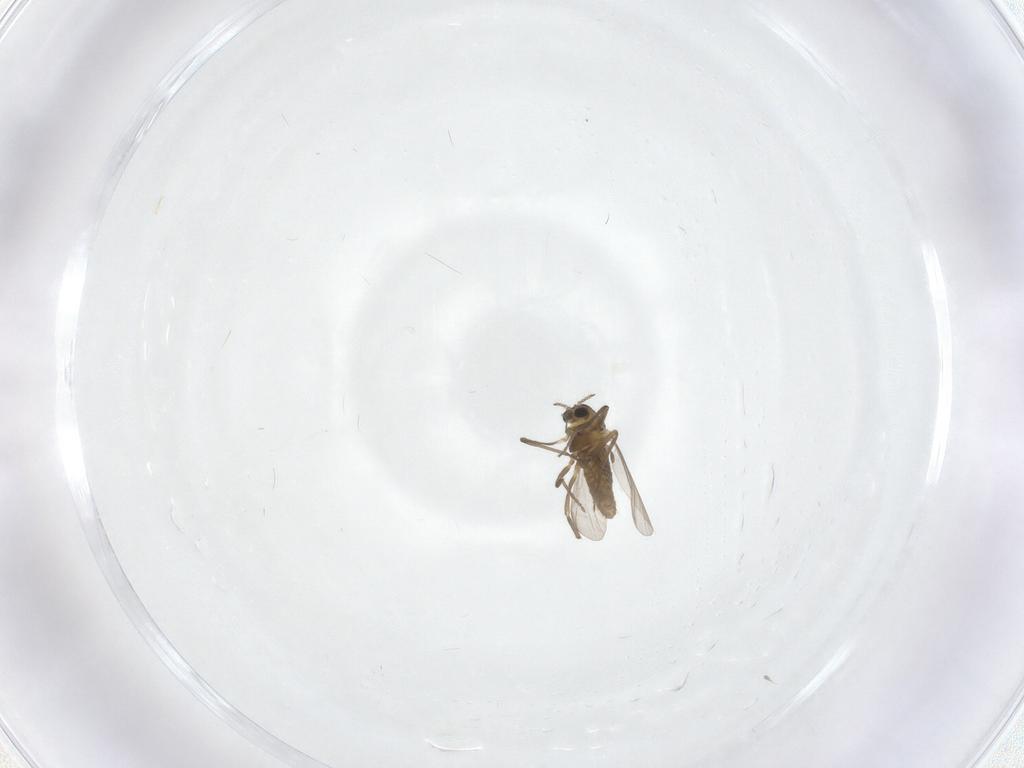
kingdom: Animalia
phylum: Arthropoda
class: Insecta
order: Diptera
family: Chironomidae
